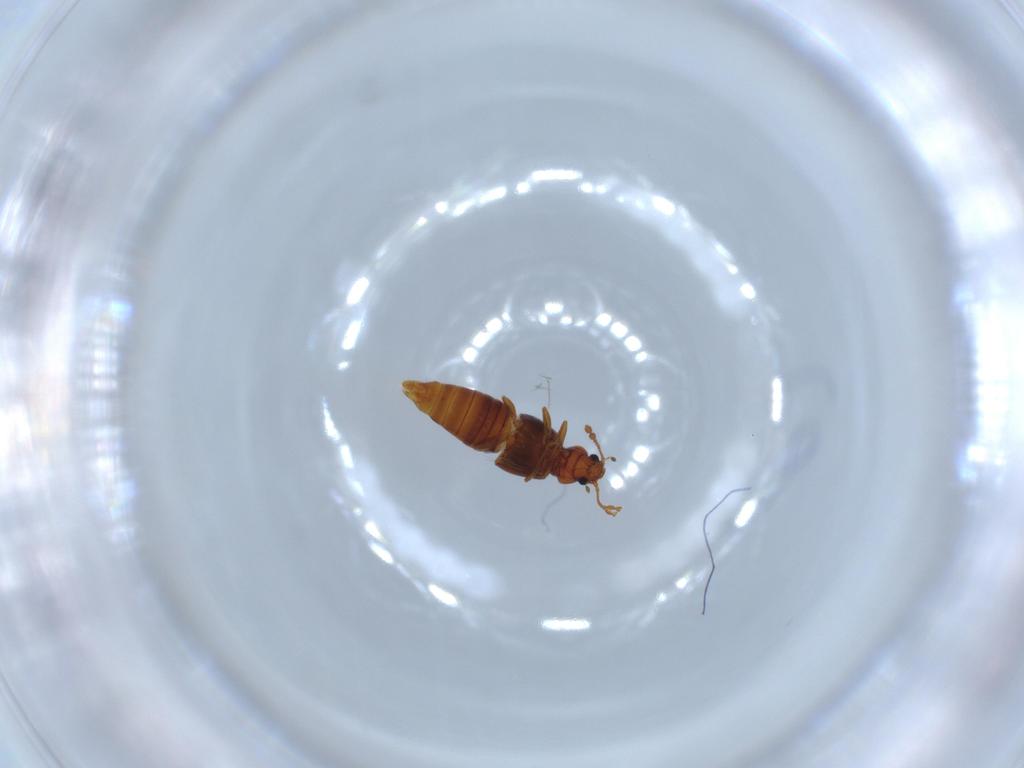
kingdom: Animalia
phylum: Arthropoda
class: Insecta
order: Coleoptera
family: Staphylinidae
